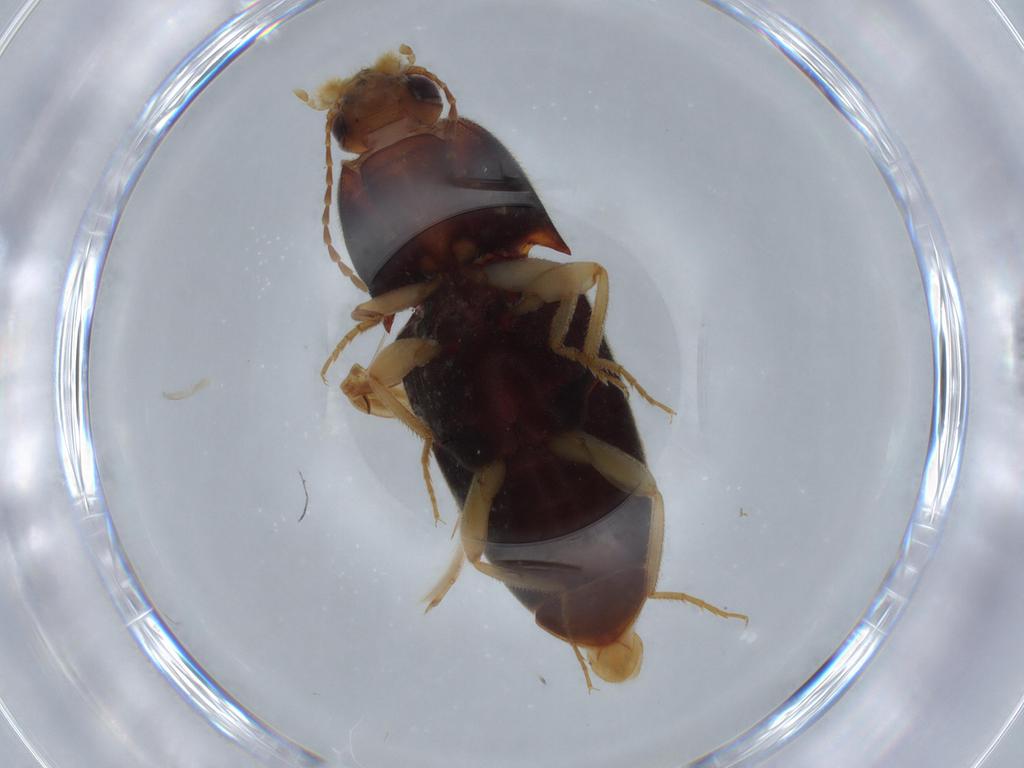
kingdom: Animalia
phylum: Arthropoda
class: Insecta
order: Coleoptera
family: Elateridae
